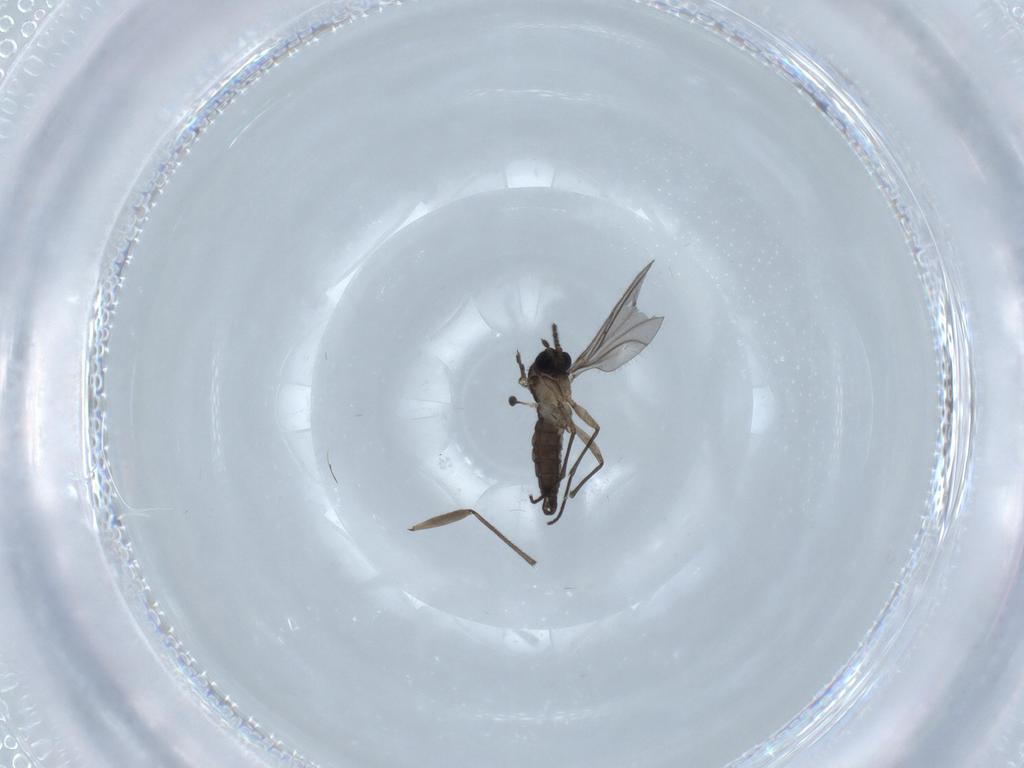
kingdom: Animalia
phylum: Arthropoda
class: Insecta
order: Diptera
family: Sciaridae
